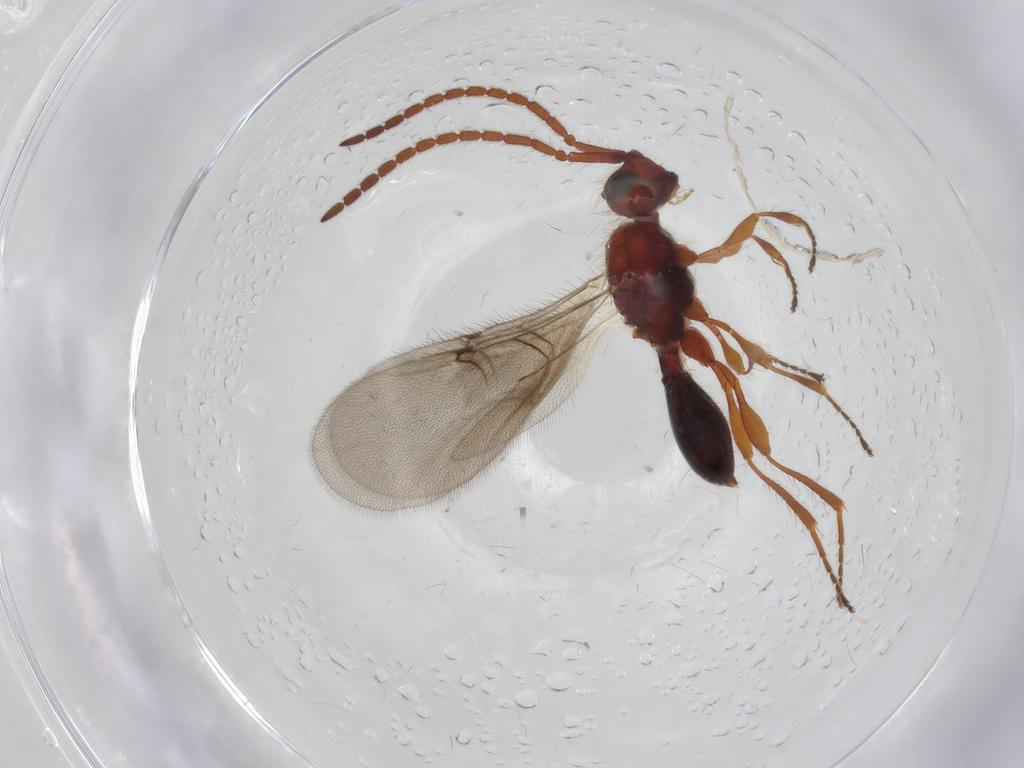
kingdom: Animalia
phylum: Arthropoda
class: Insecta
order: Hymenoptera
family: Diapriidae
